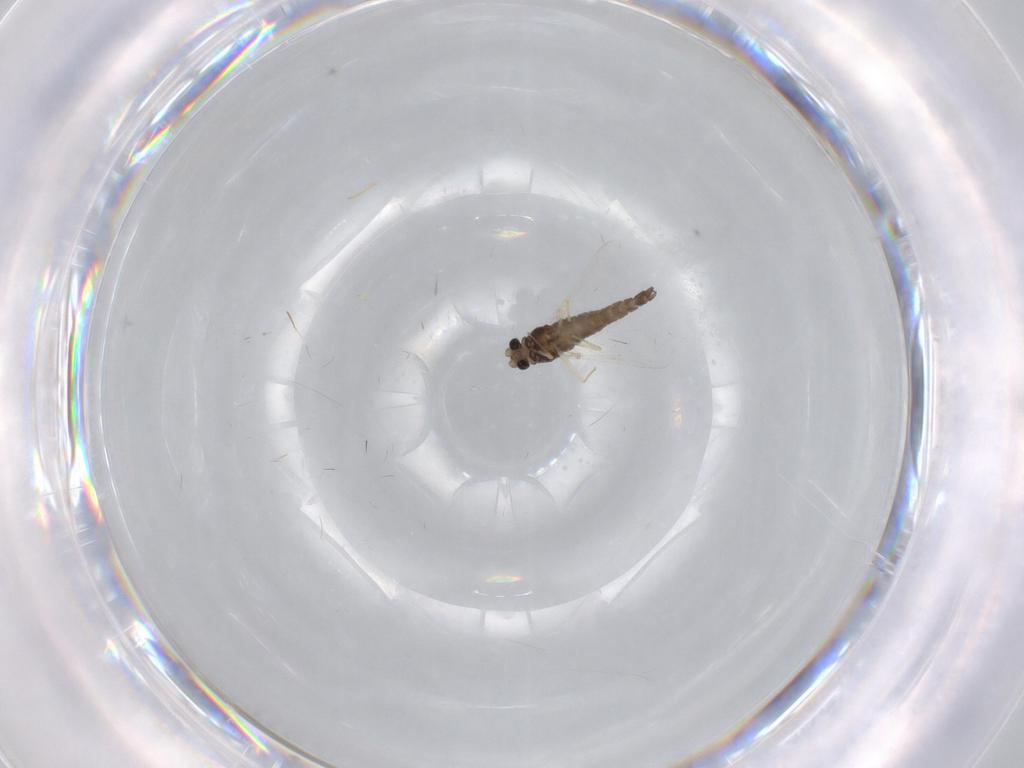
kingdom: Animalia
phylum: Arthropoda
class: Insecta
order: Diptera
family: Chironomidae
